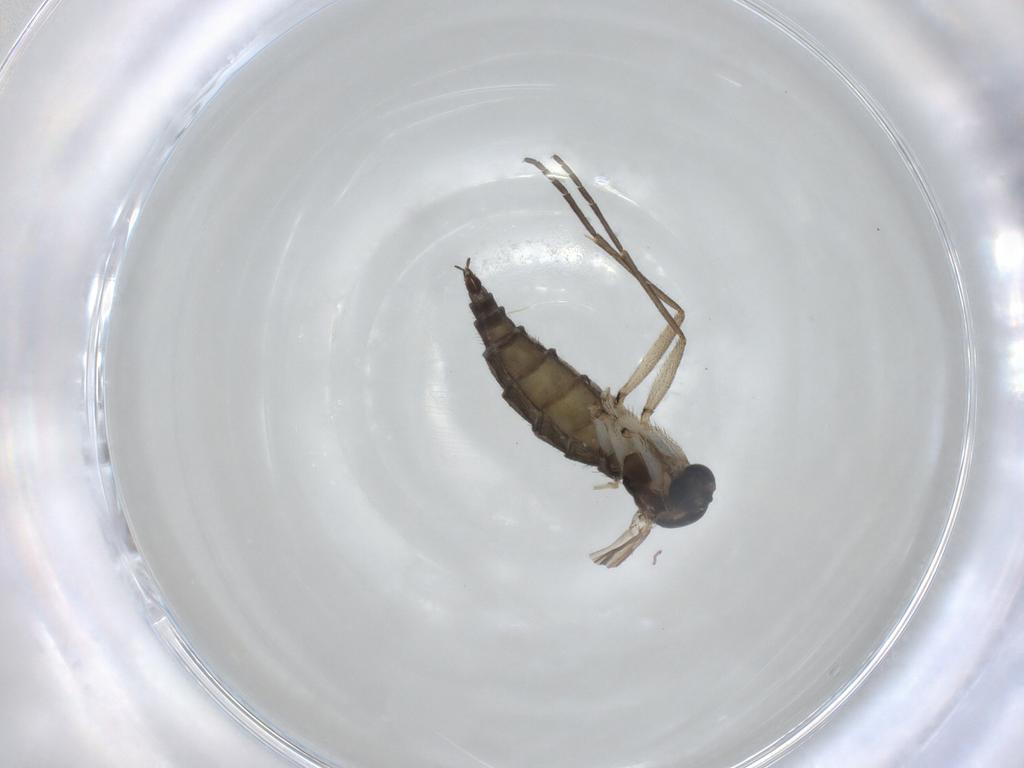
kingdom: Animalia
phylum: Arthropoda
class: Insecta
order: Diptera
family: Sciaridae
